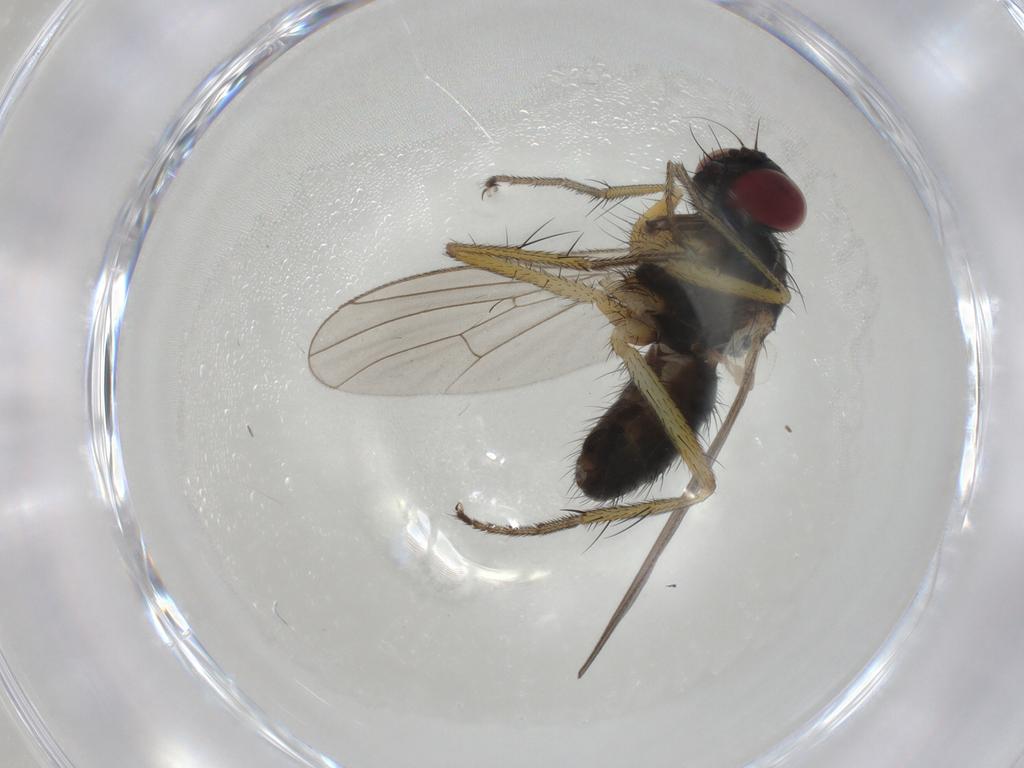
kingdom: Animalia
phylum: Arthropoda
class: Insecta
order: Diptera
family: Muscidae
